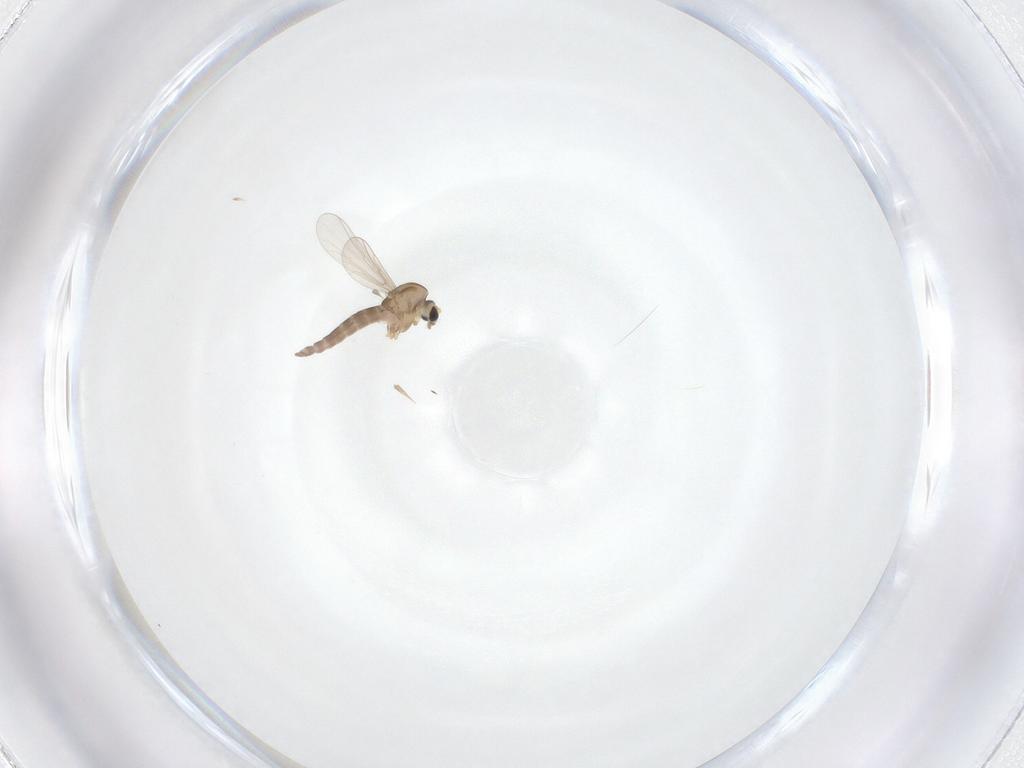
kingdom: Animalia
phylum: Arthropoda
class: Insecta
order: Diptera
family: Chironomidae
